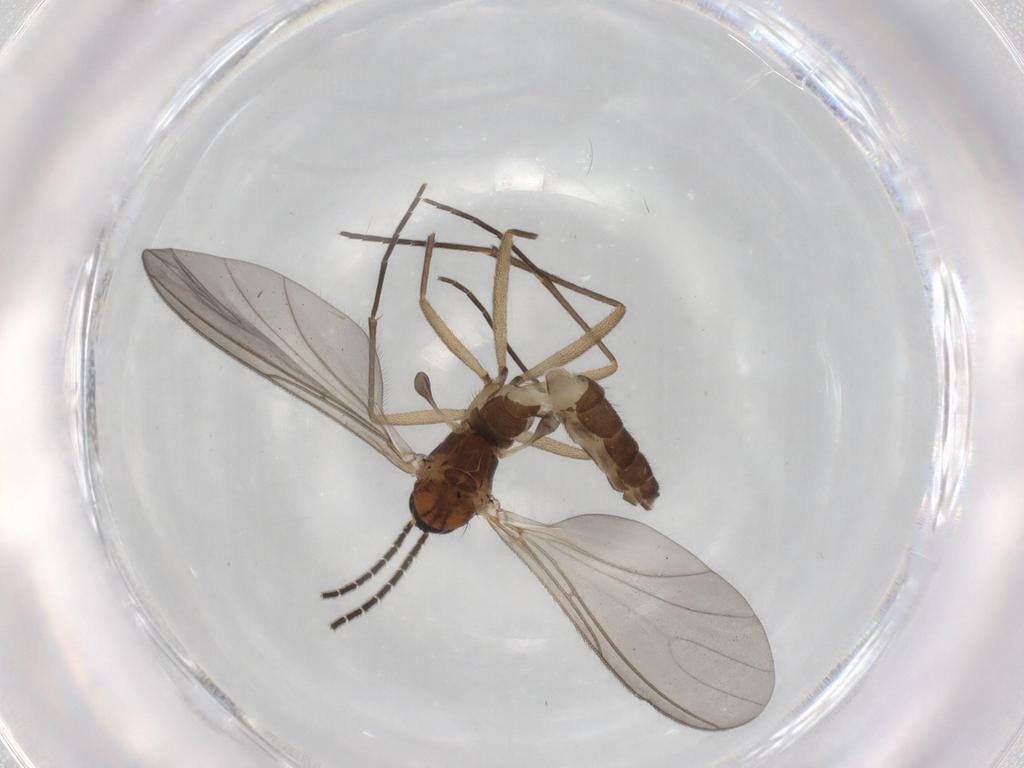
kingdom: Animalia
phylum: Arthropoda
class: Insecta
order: Diptera
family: Sciaridae
